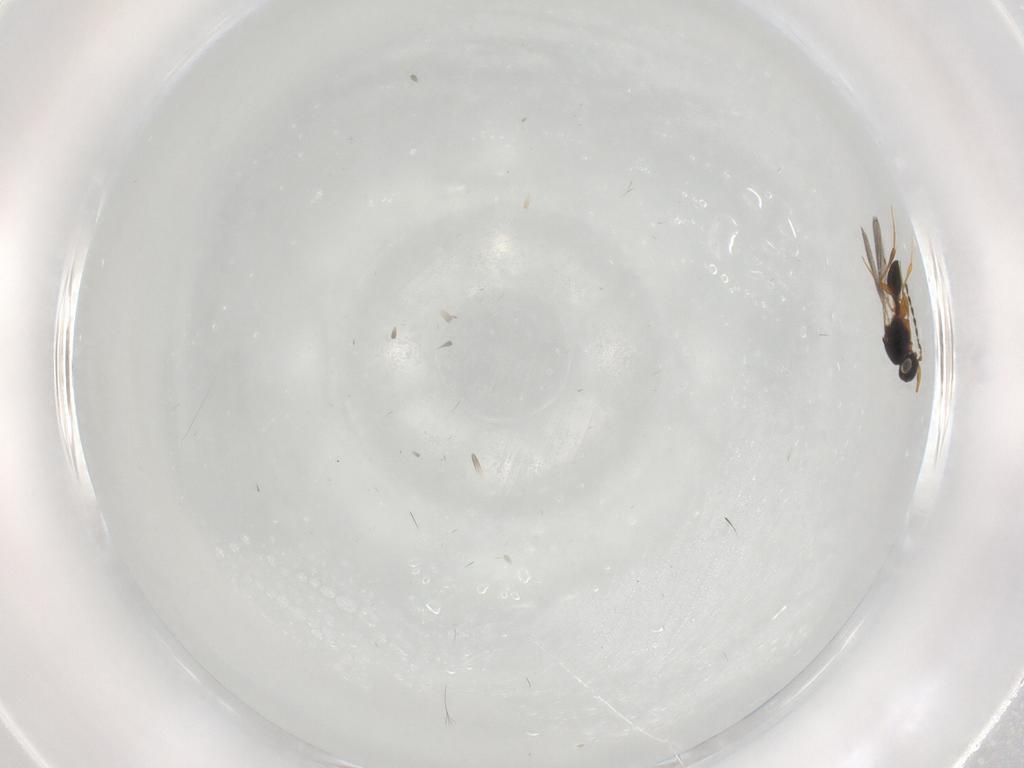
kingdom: Animalia
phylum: Arthropoda
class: Insecta
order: Hymenoptera
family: Platygastridae
